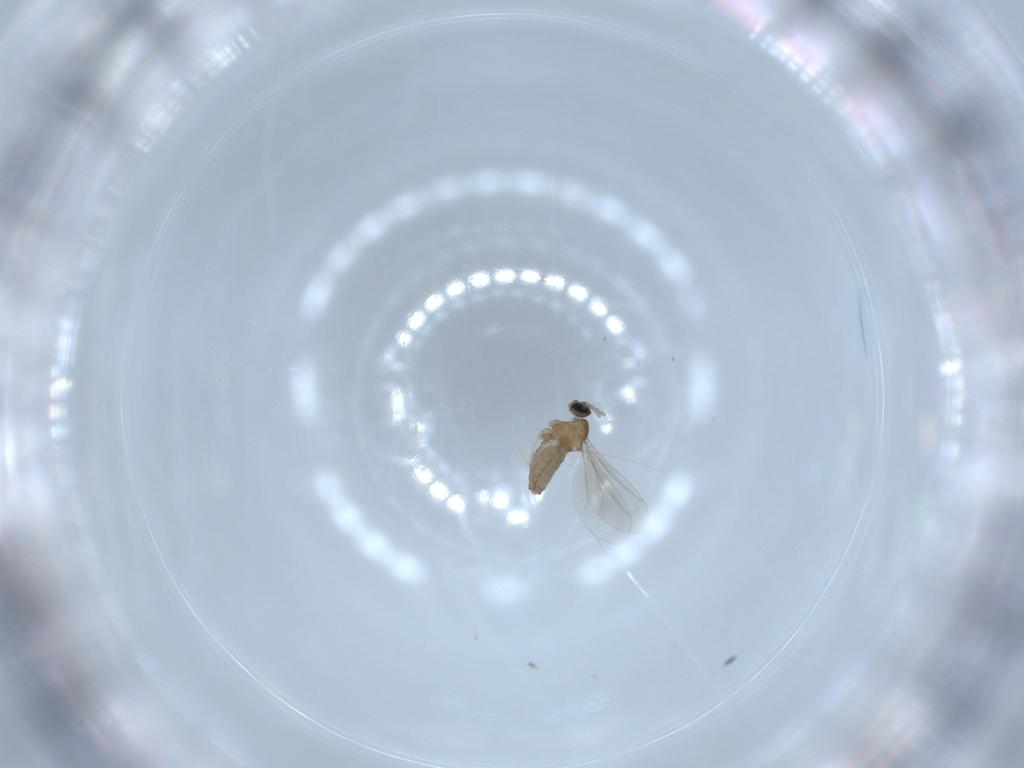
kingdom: Animalia
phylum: Arthropoda
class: Insecta
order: Diptera
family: Cecidomyiidae
